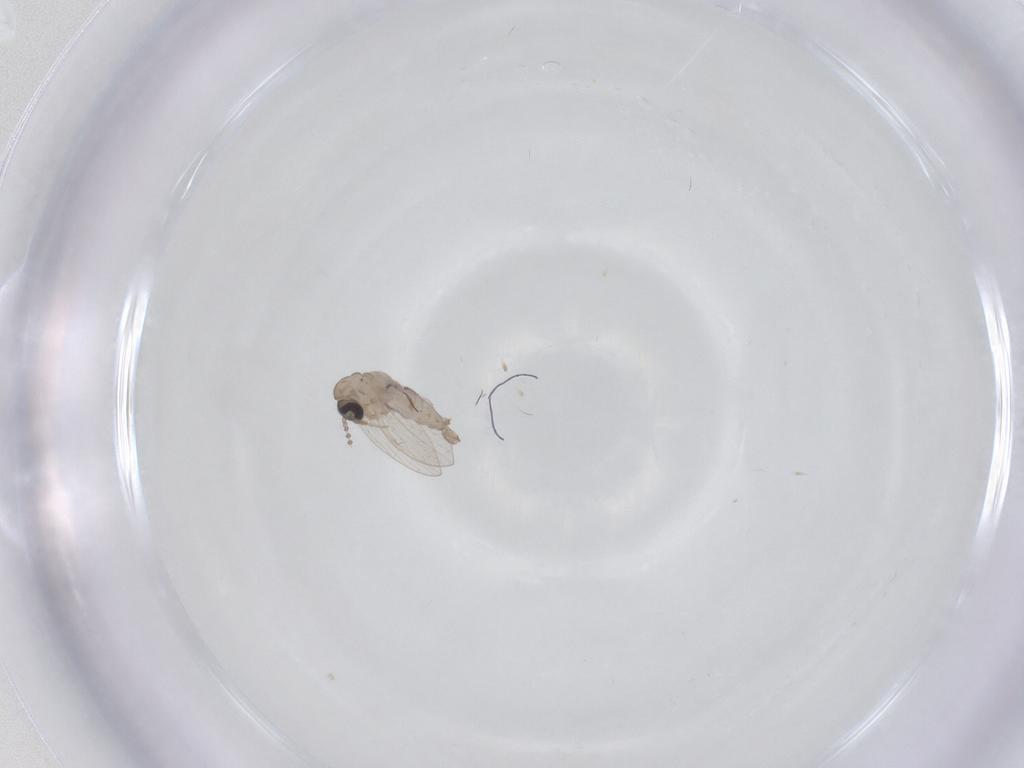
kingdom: Animalia
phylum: Arthropoda
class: Insecta
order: Diptera
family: Psychodidae
